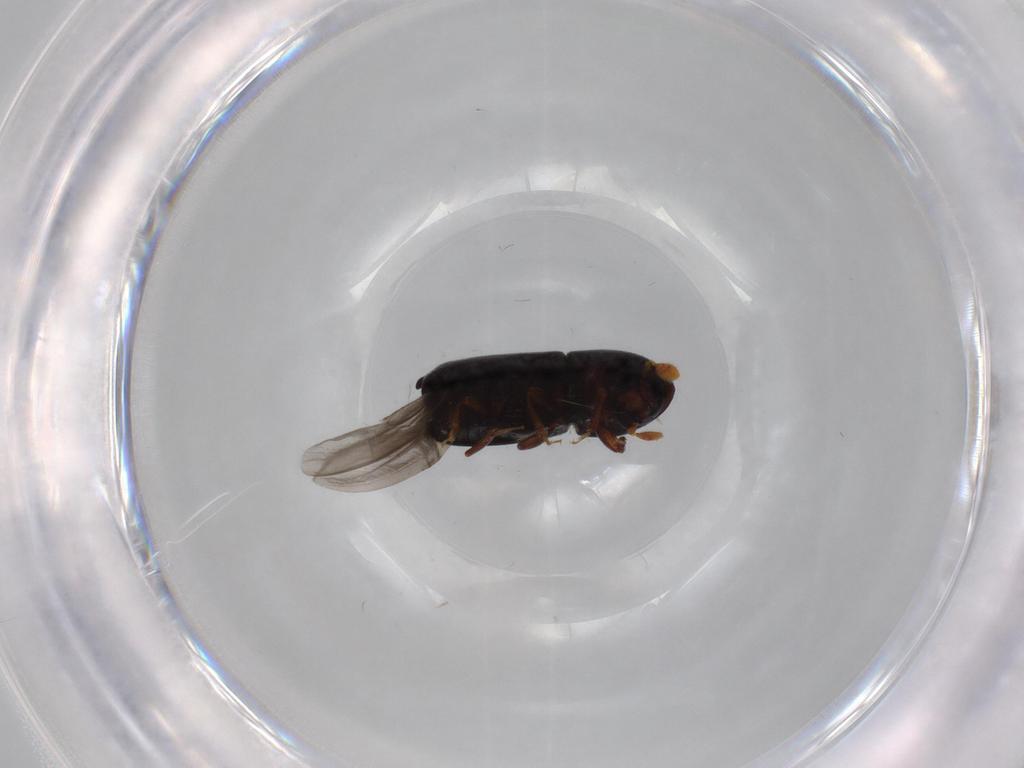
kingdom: Animalia
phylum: Arthropoda
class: Insecta
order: Coleoptera
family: Curculionidae
